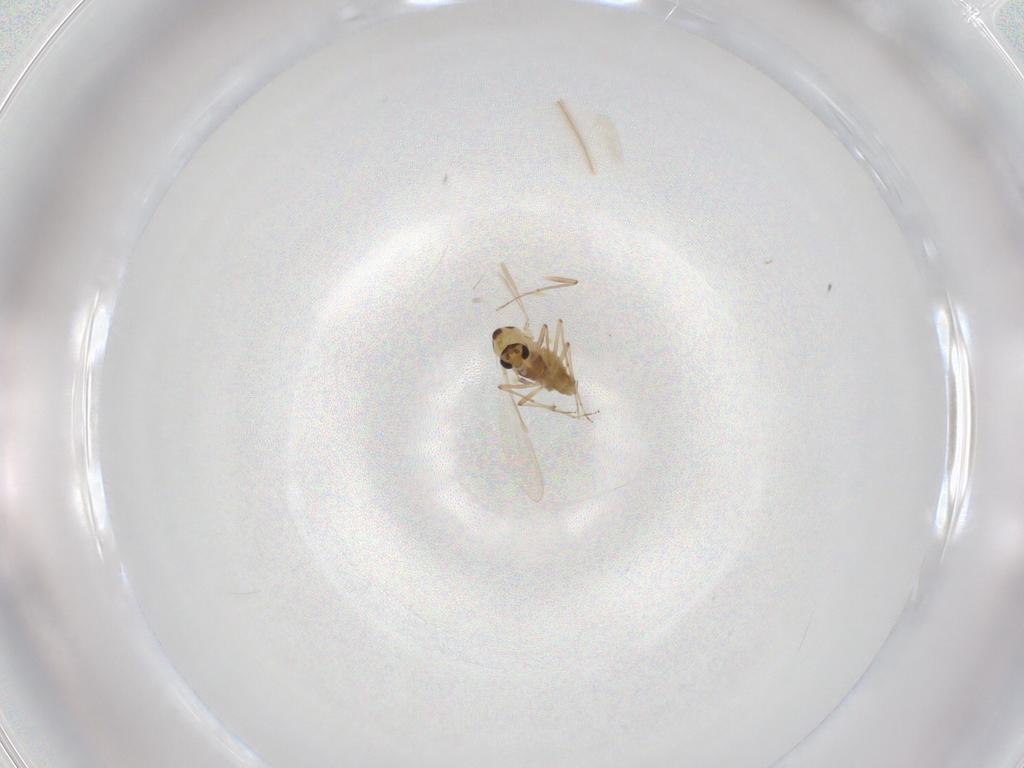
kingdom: Animalia
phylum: Arthropoda
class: Insecta
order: Diptera
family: Chironomidae
